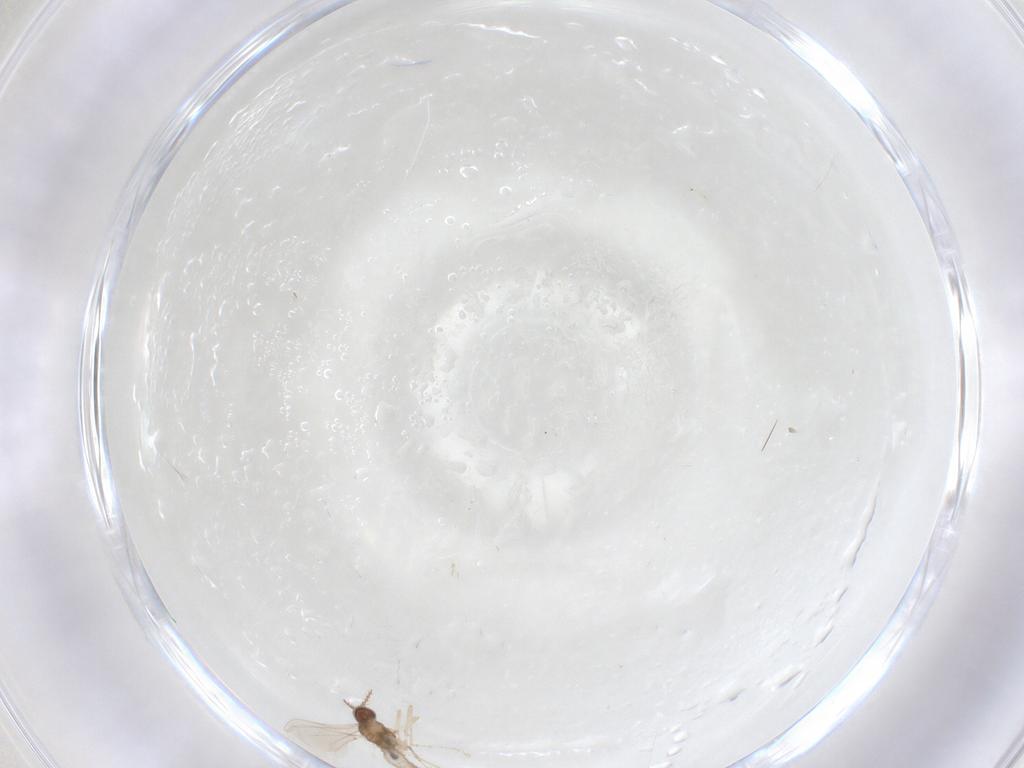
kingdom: Animalia
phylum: Arthropoda
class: Insecta
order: Diptera
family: Cecidomyiidae
